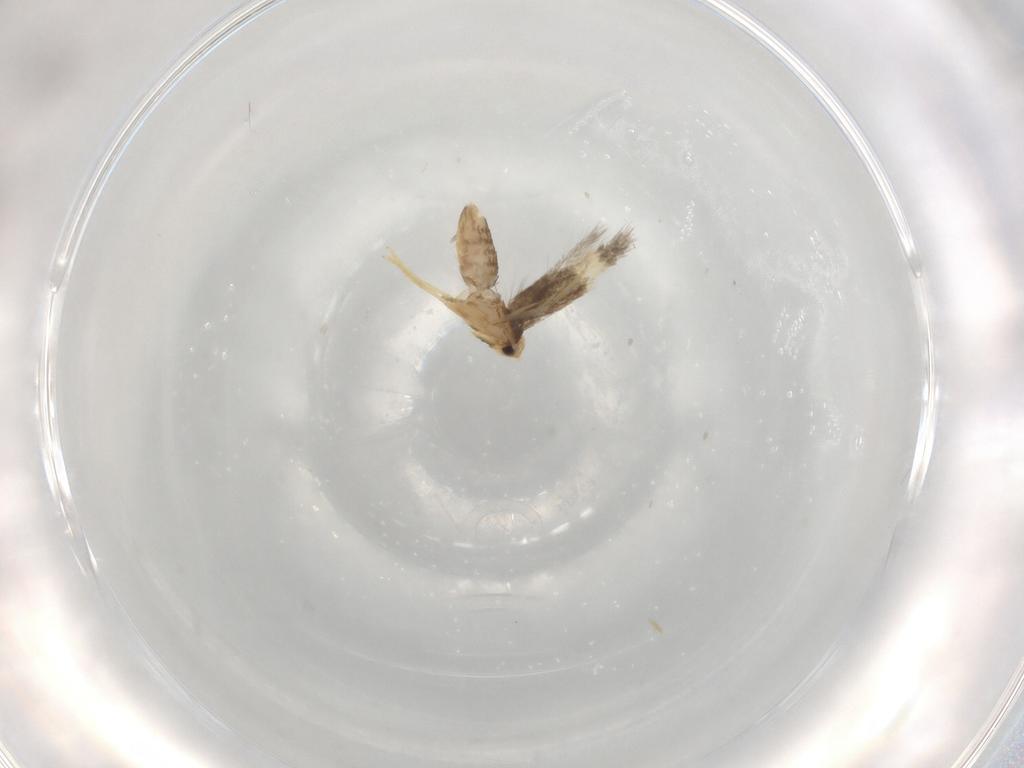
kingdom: Animalia
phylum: Arthropoda
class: Insecta
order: Lepidoptera
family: Nepticulidae
